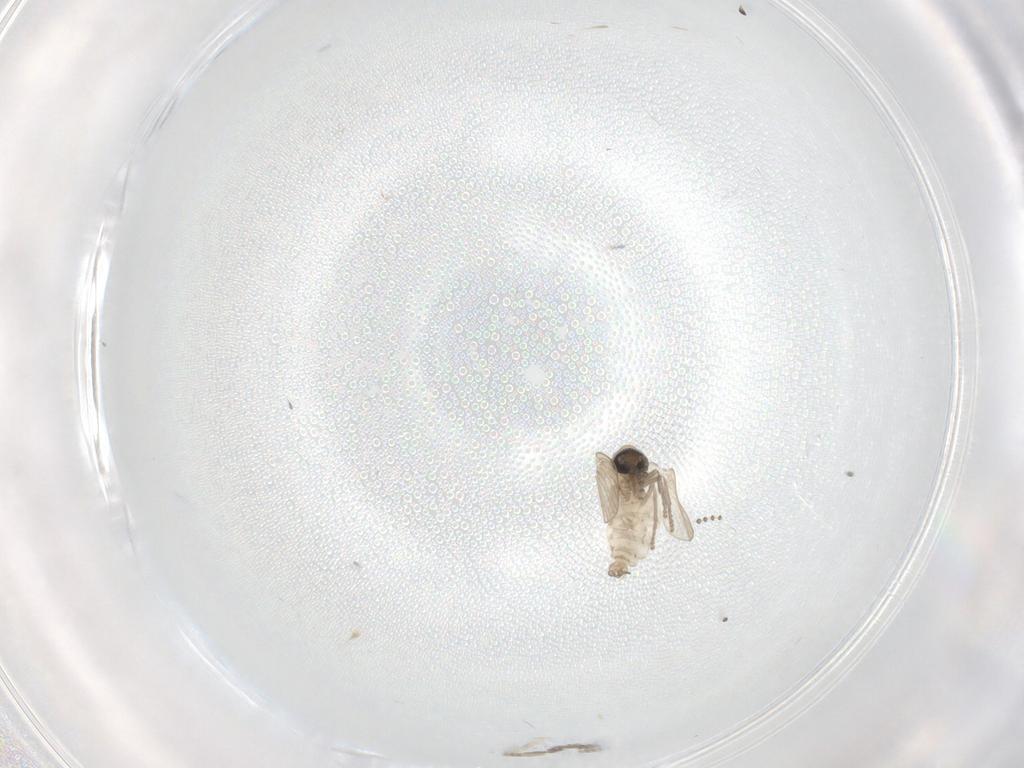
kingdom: Animalia
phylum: Arthropoda
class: Insecta
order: Diptera
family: Psychodidae
